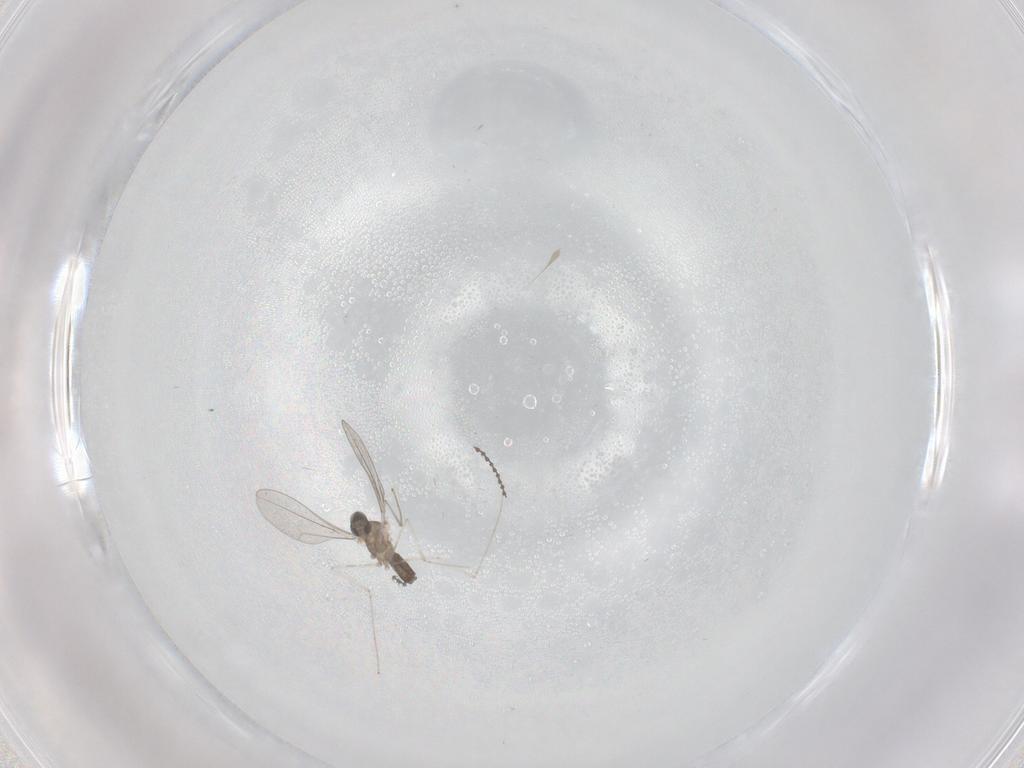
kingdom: Animalia
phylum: Arthropoda
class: Insecta
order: Diptera
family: Cecidomyiidae
